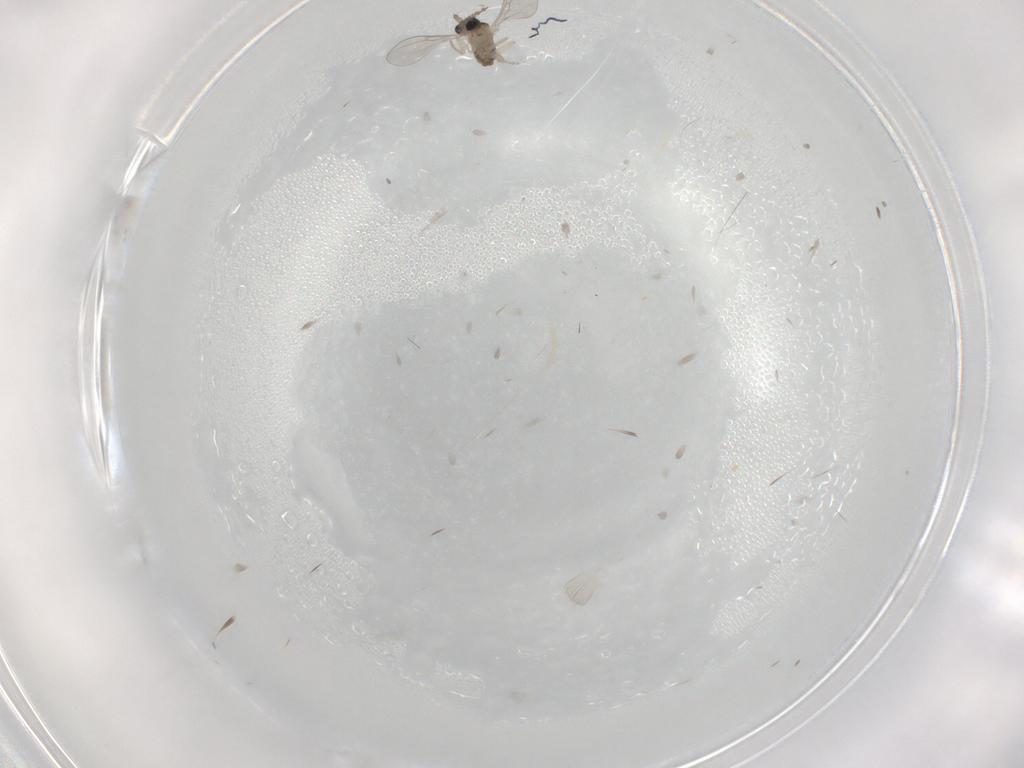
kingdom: Animalia
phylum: Arthropoda
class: Insecta
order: Diptera
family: Cecidomyiidae
